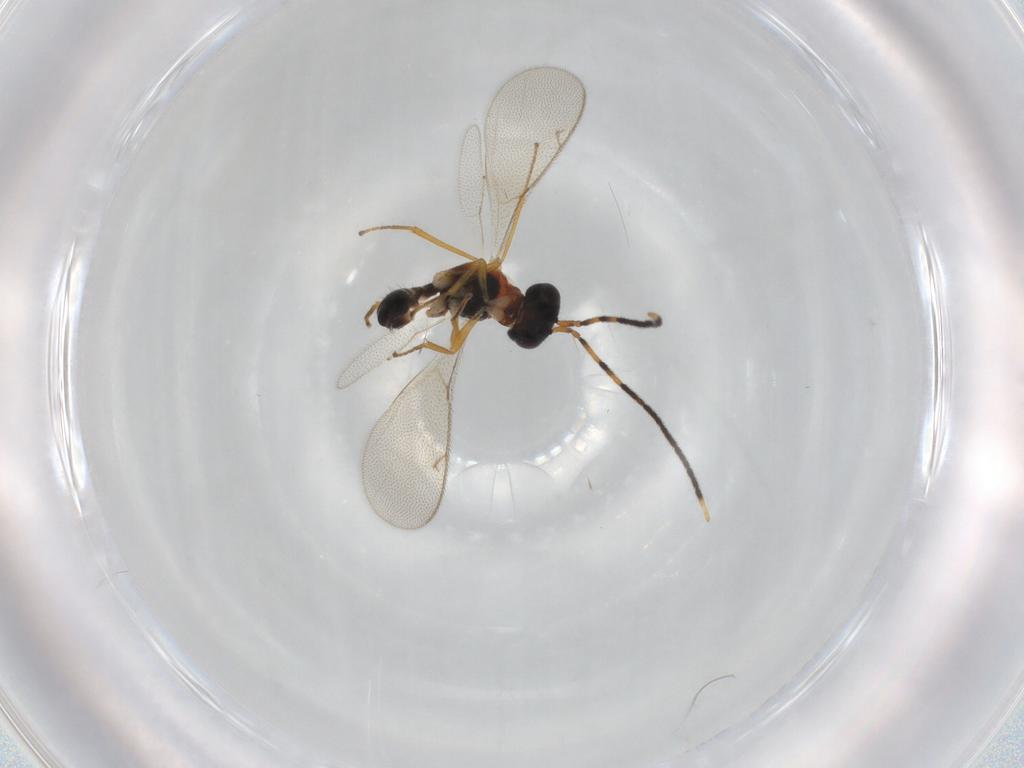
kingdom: Animalia
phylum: Arthropoda
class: Insecta
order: Hymenoptera
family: Pteromalidae
